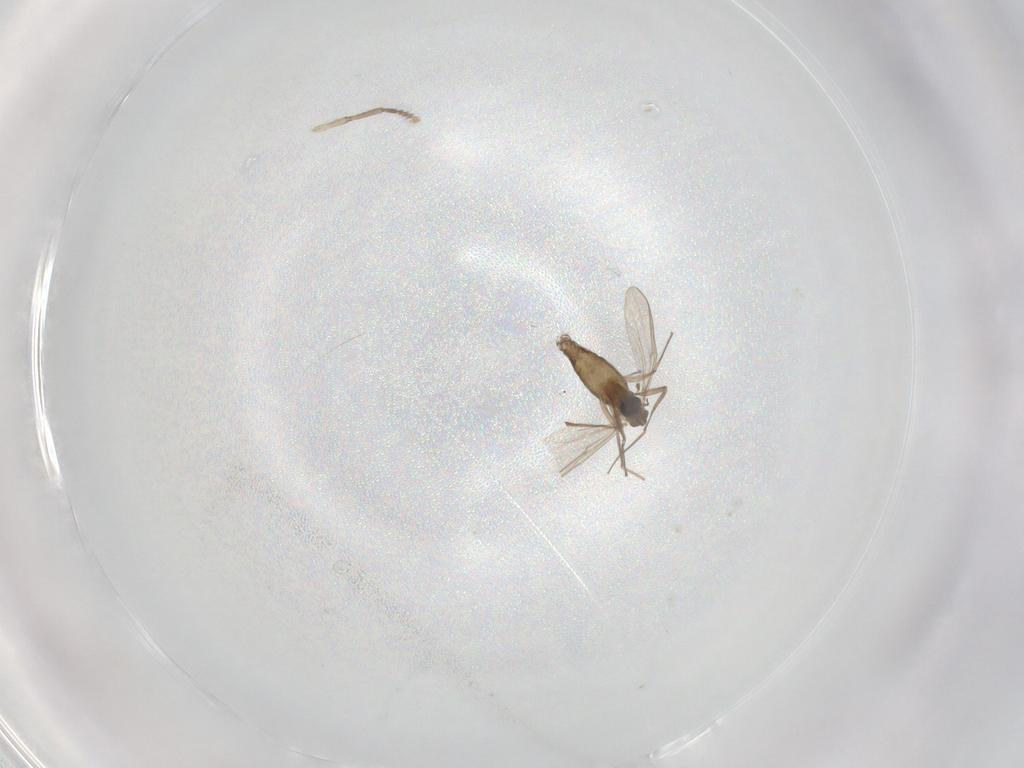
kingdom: Animalia
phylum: Arthropoda
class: Insecta
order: Diptera
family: Chironomidae
